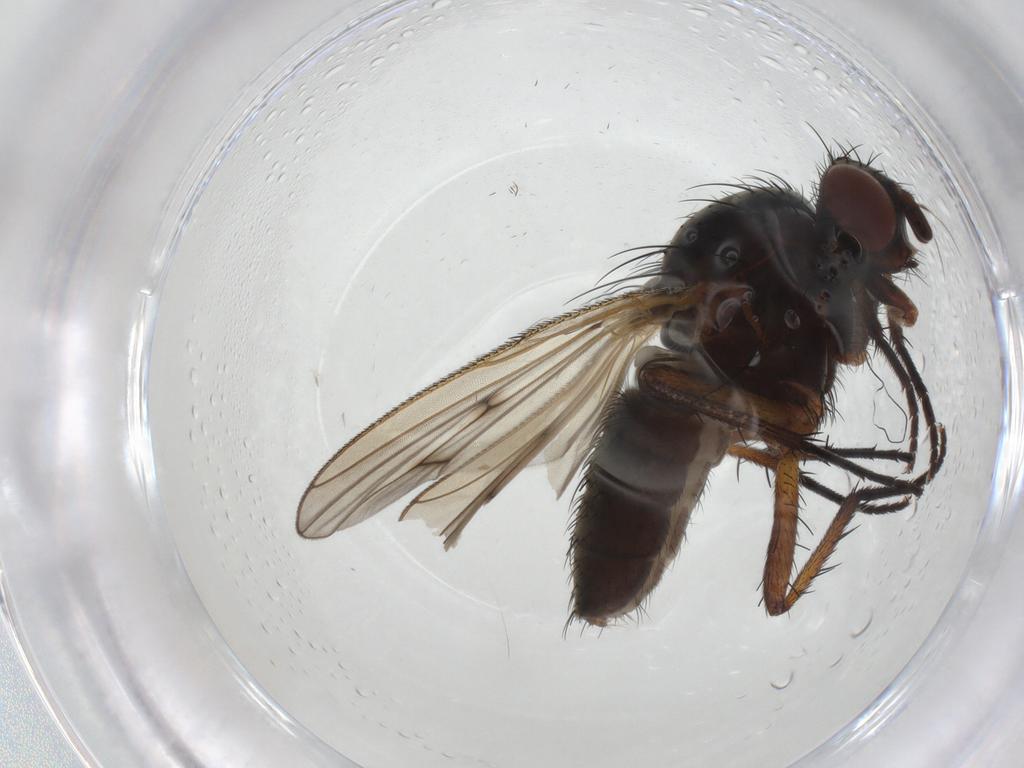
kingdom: Animalia
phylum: Arthropoda
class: Insecta
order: Diptera
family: Anthomyiidae
